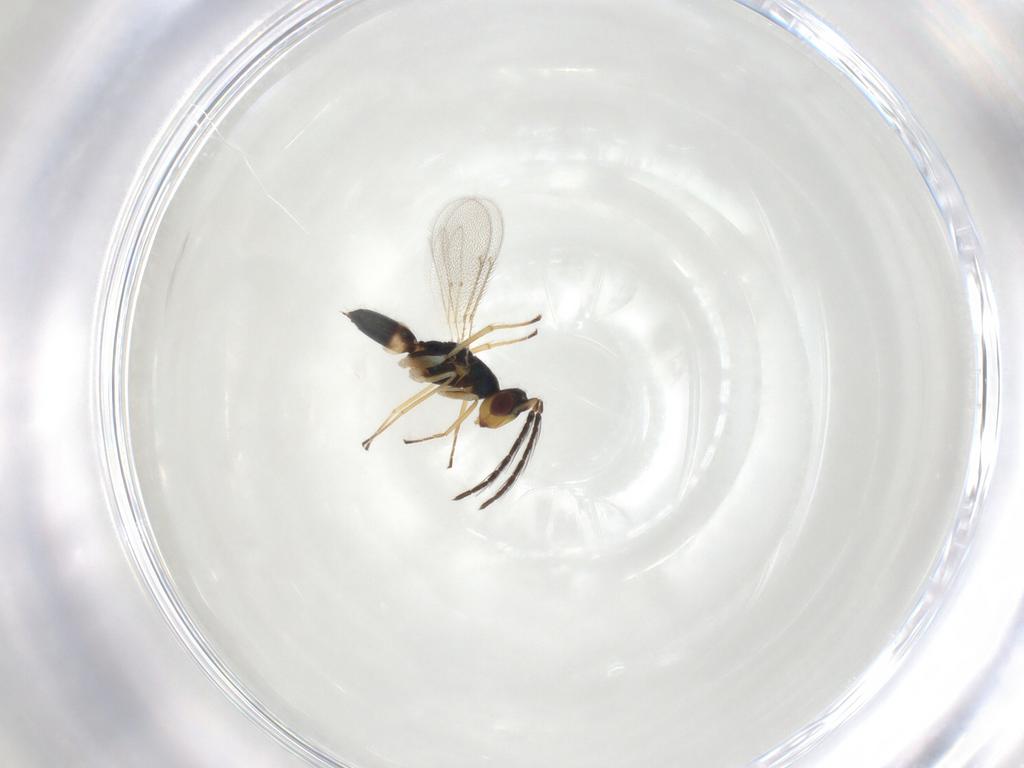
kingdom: Animalia
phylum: Arthropoda
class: Insecta
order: Hymenoptera
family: Eulophidae
